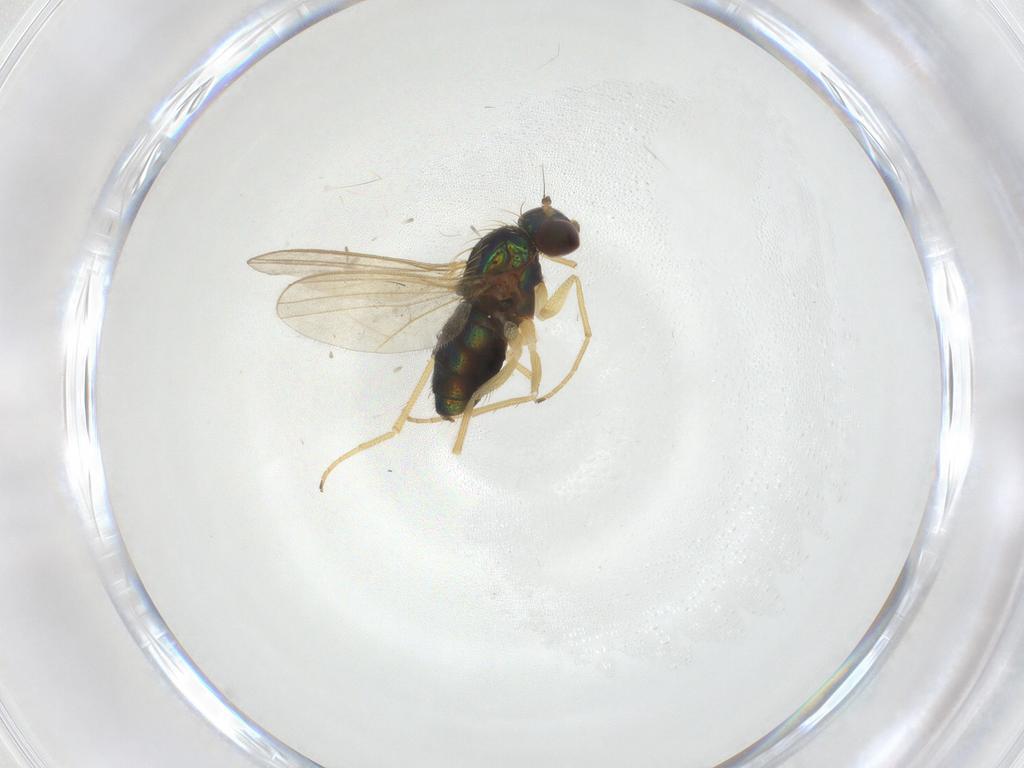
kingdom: Animalia
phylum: Arthropoda
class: Insecta
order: Diptera
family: Dolichopodidae
